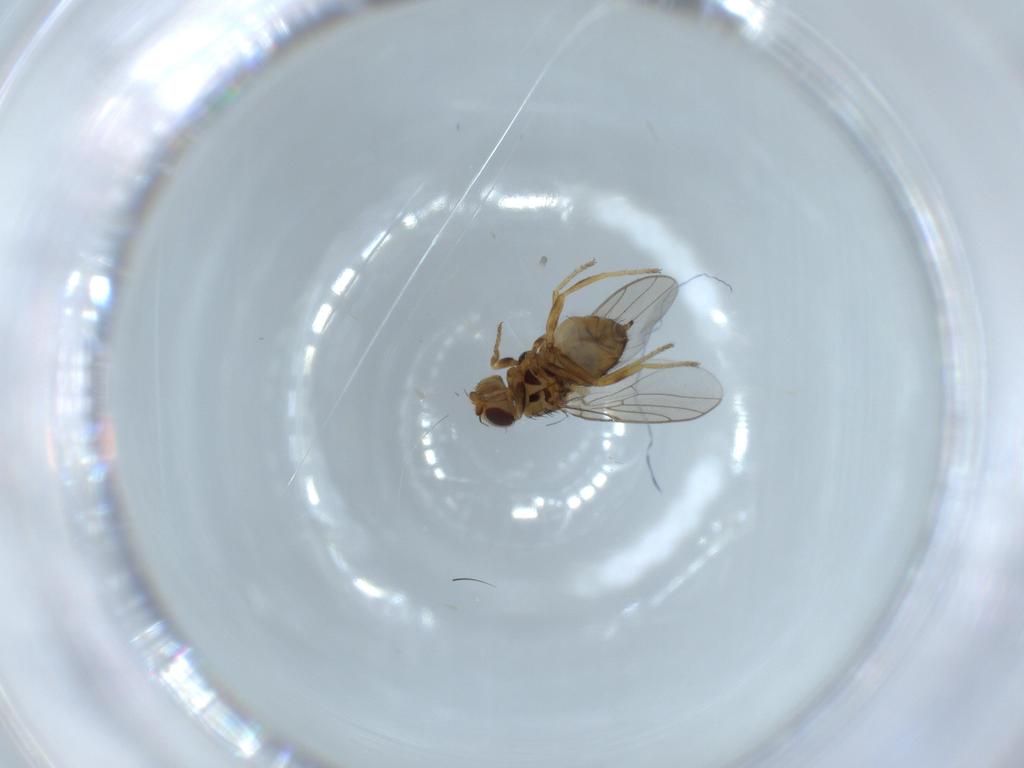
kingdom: Animalia
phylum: Arthropoda
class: Insecta
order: Diptera
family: Chloropidae
